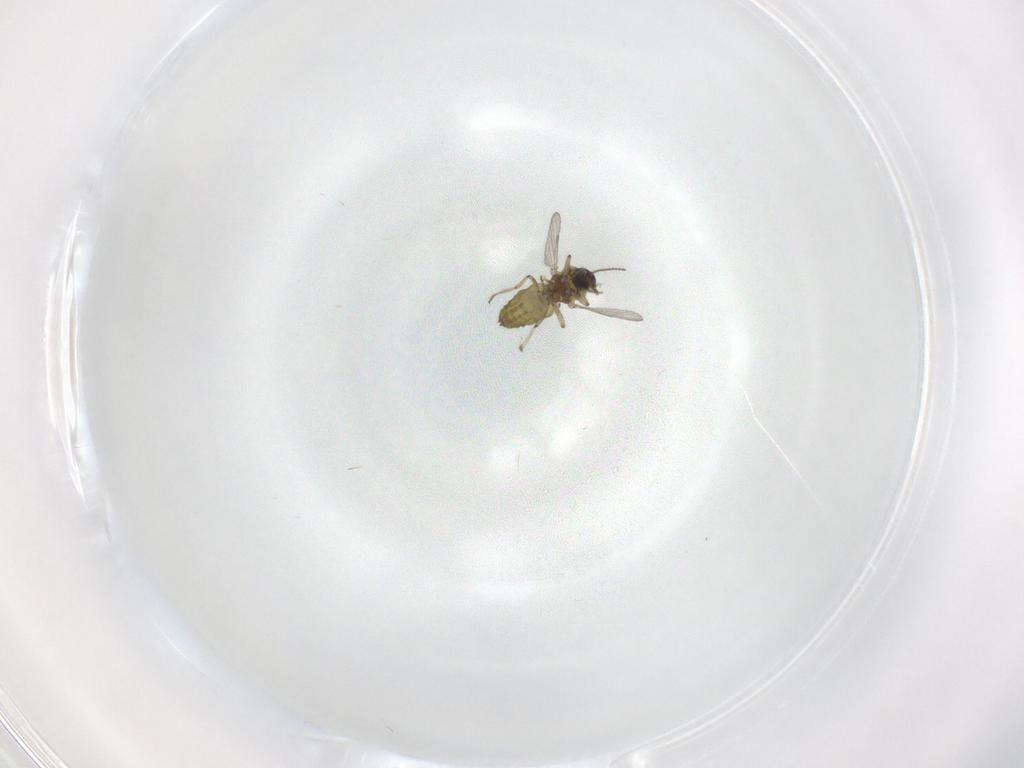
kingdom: Animalia
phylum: Arthropoda
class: Insecta
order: Diptera
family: Ceratopogonidae
